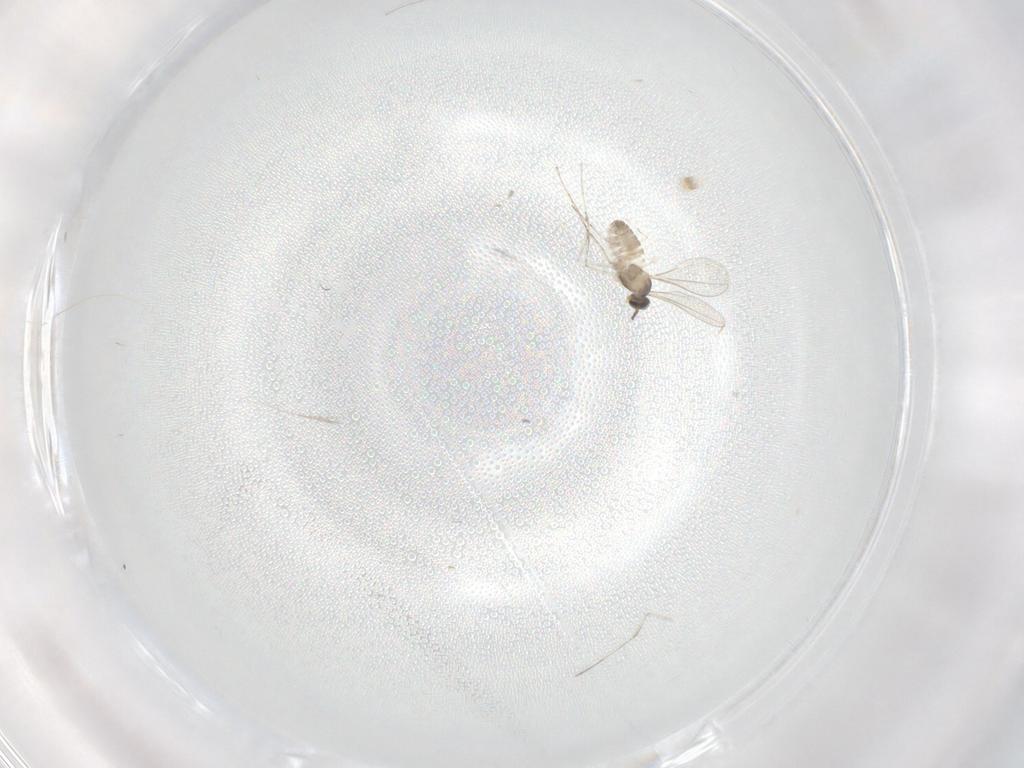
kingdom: Animalia
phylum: Arthropoda
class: Insecta
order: Diptera
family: Cecidomyiidae
